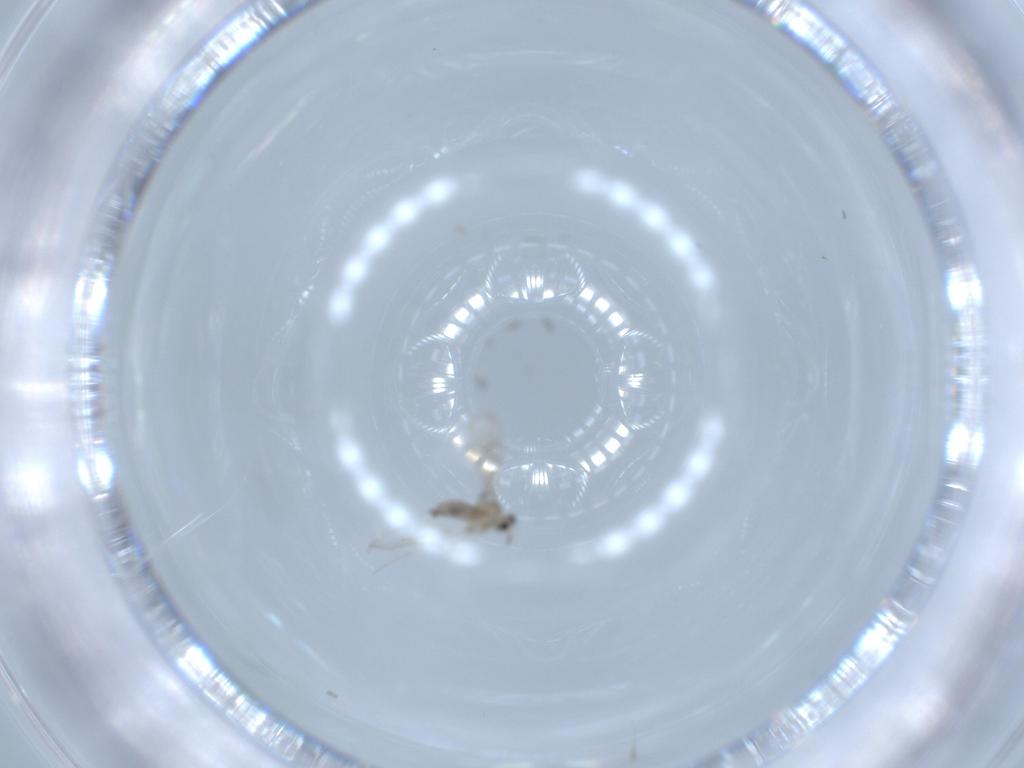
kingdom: Animalia
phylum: Arthropoda
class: Insecta
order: Diptera
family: Cecidomyiidae
